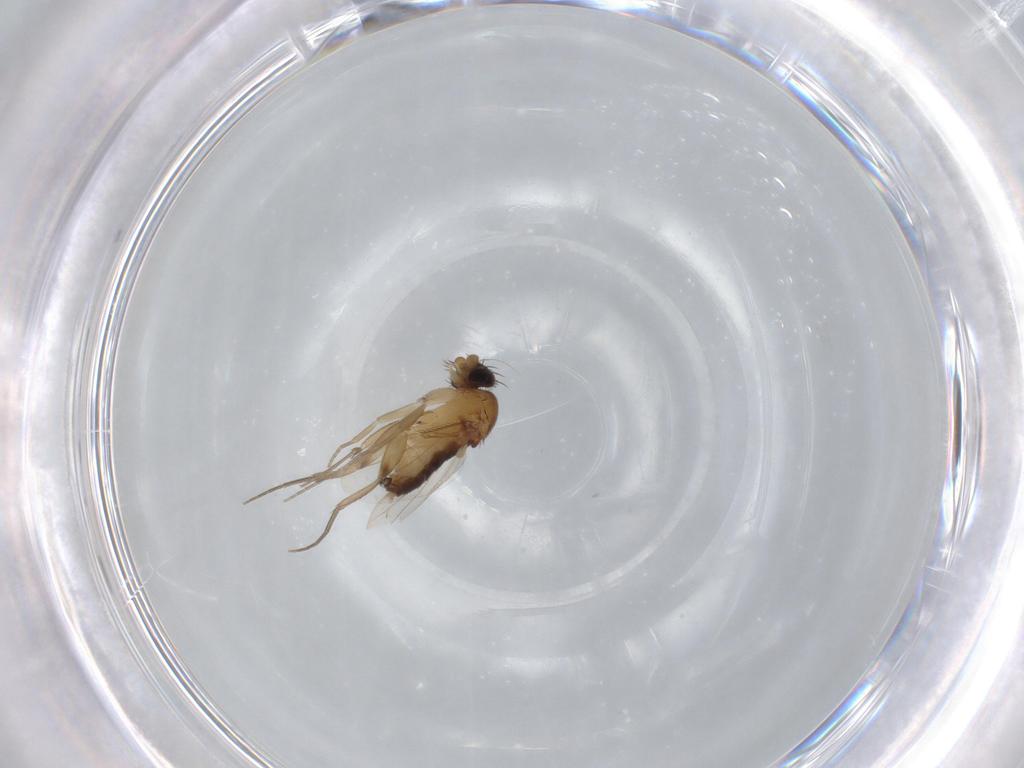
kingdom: Animalia
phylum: Arthropoda
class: Insecta
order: Diptera
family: Phoridae
